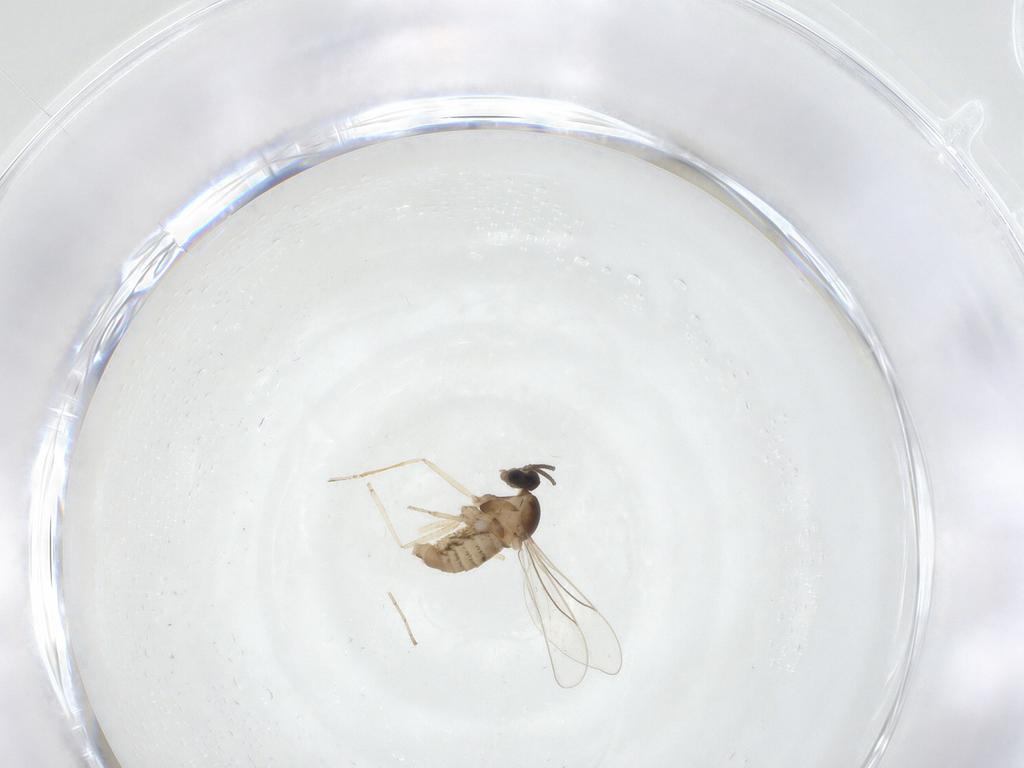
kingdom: Animalia
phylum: Arthropoda
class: Insecta
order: Diptera
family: Cecidomyiidae
